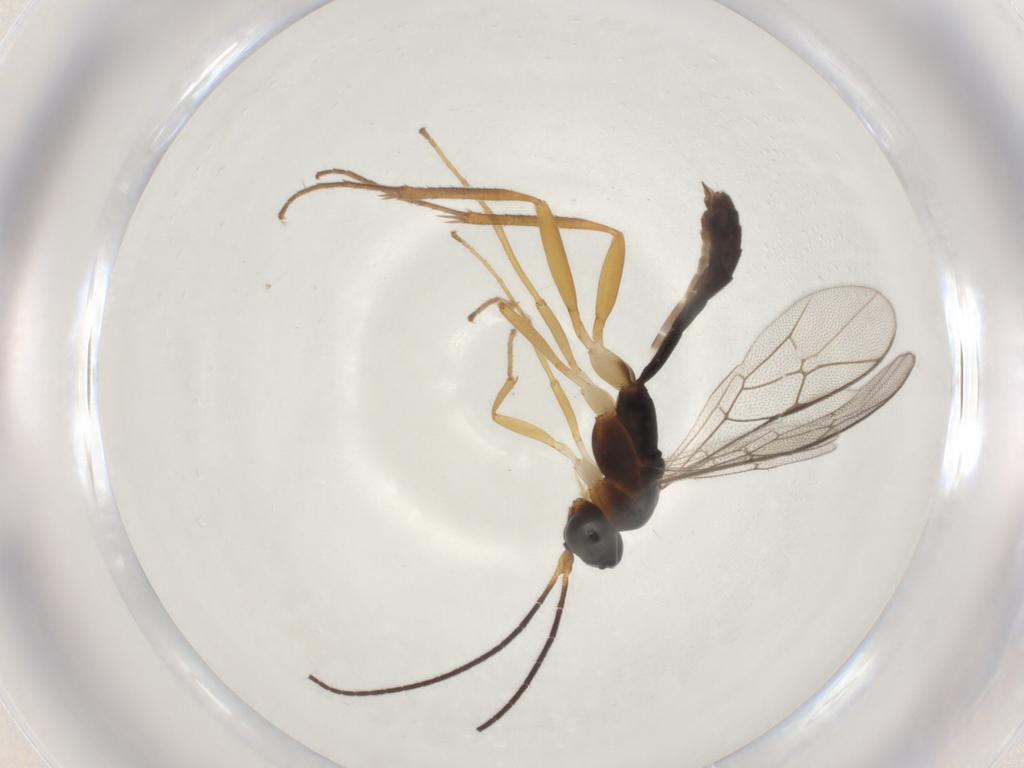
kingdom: Animalia
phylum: Arthropoda
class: Insecta
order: Hymenoptera
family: Ichneumonidae
